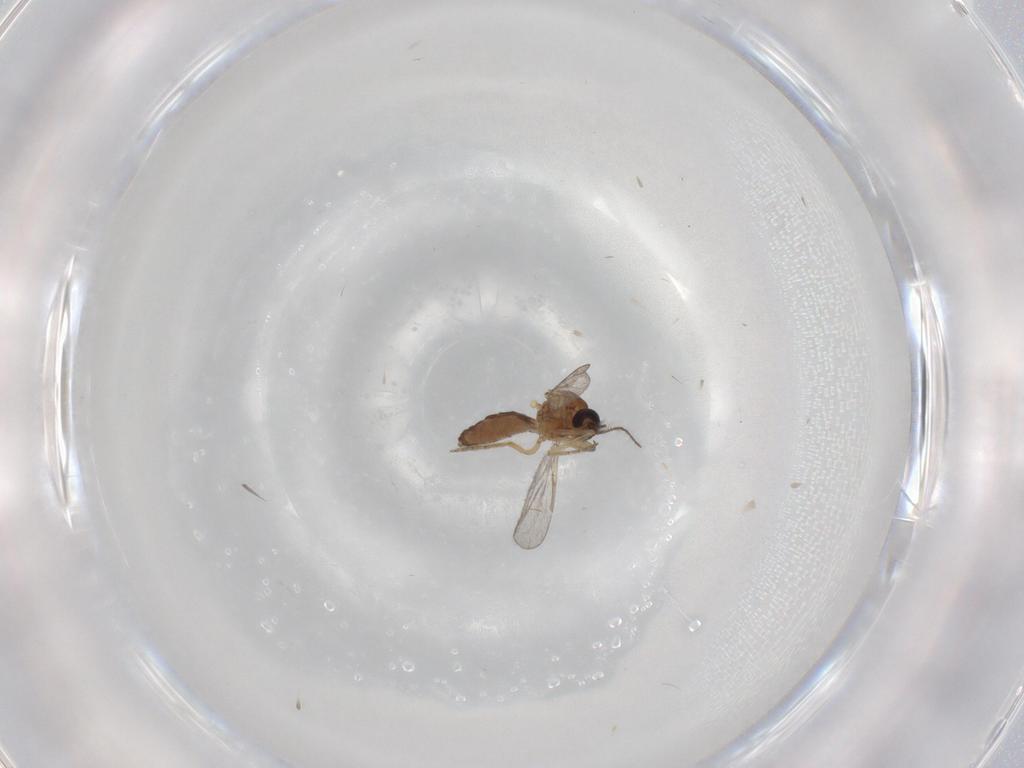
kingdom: Animalia
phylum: Arthropoda
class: Insecta
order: Diptera
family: Ceratopogonidae
